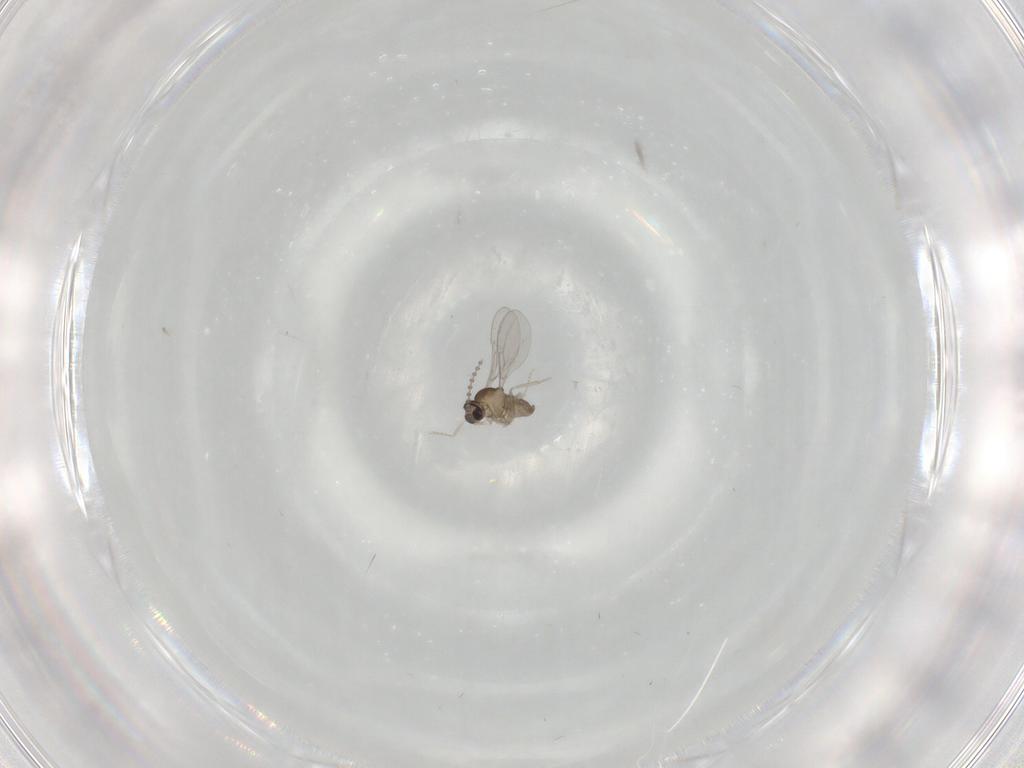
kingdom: Animalia
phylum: Arthropoda
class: Insecta
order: Diptera
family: Cecidomyiidae
